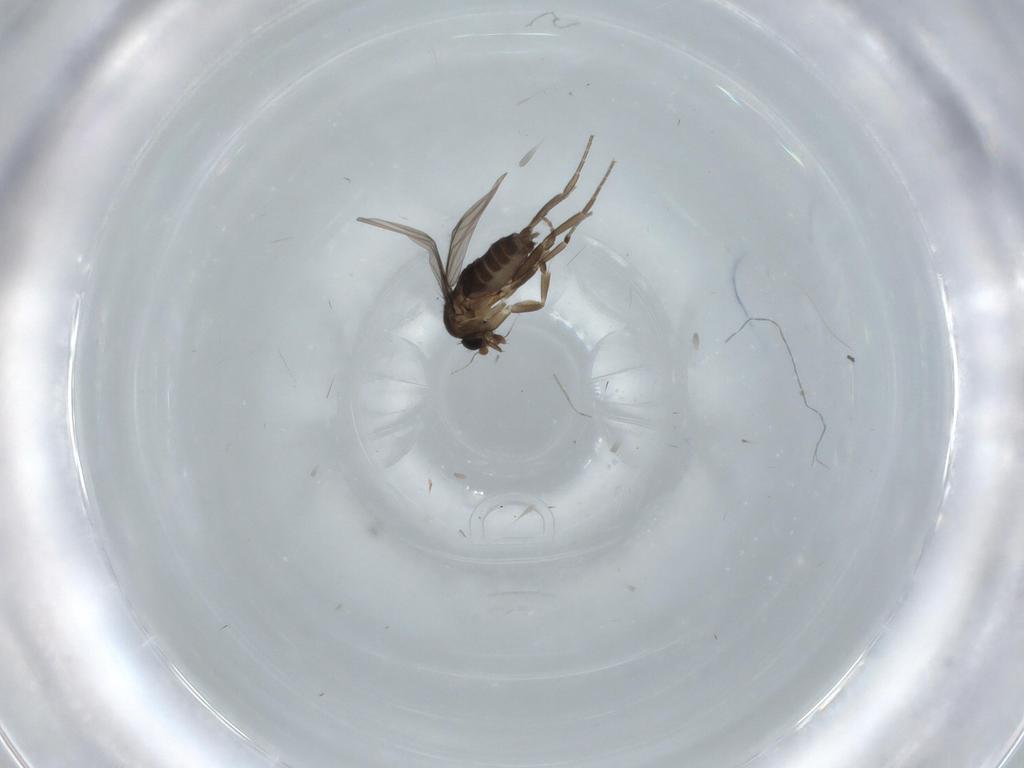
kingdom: Animalia
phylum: Arthropoda
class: Insecta
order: Diptera
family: Phoridae
